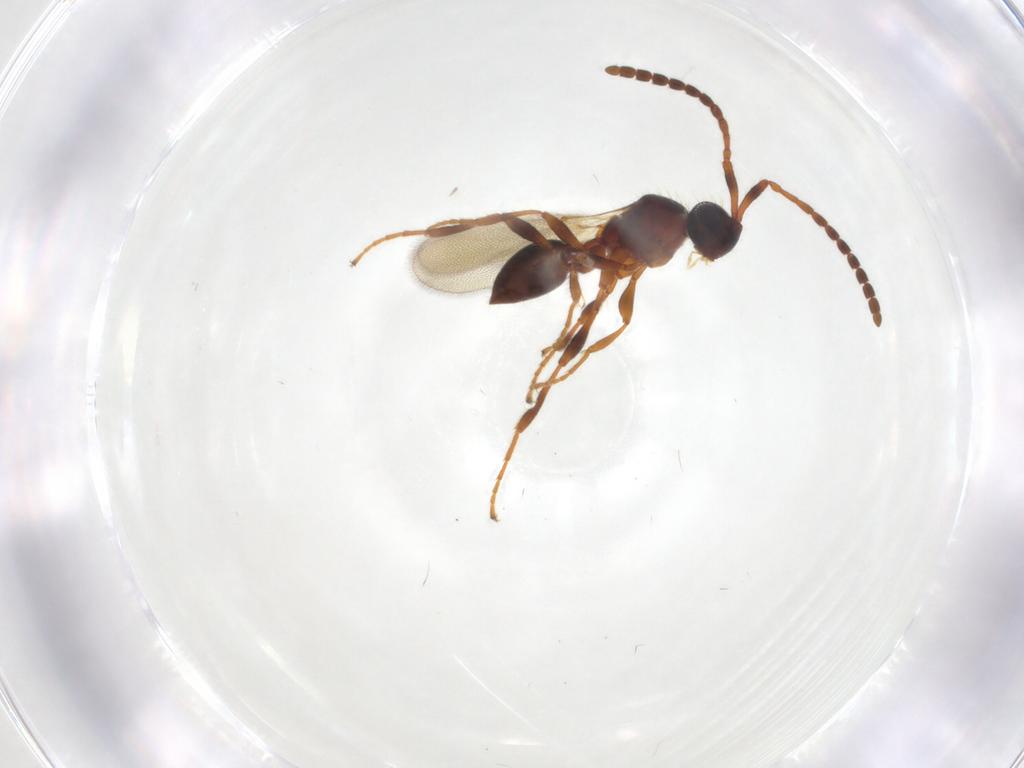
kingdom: Animalia
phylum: Arthropoda
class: Insecta
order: Hymenoptera
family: Diapriidae
